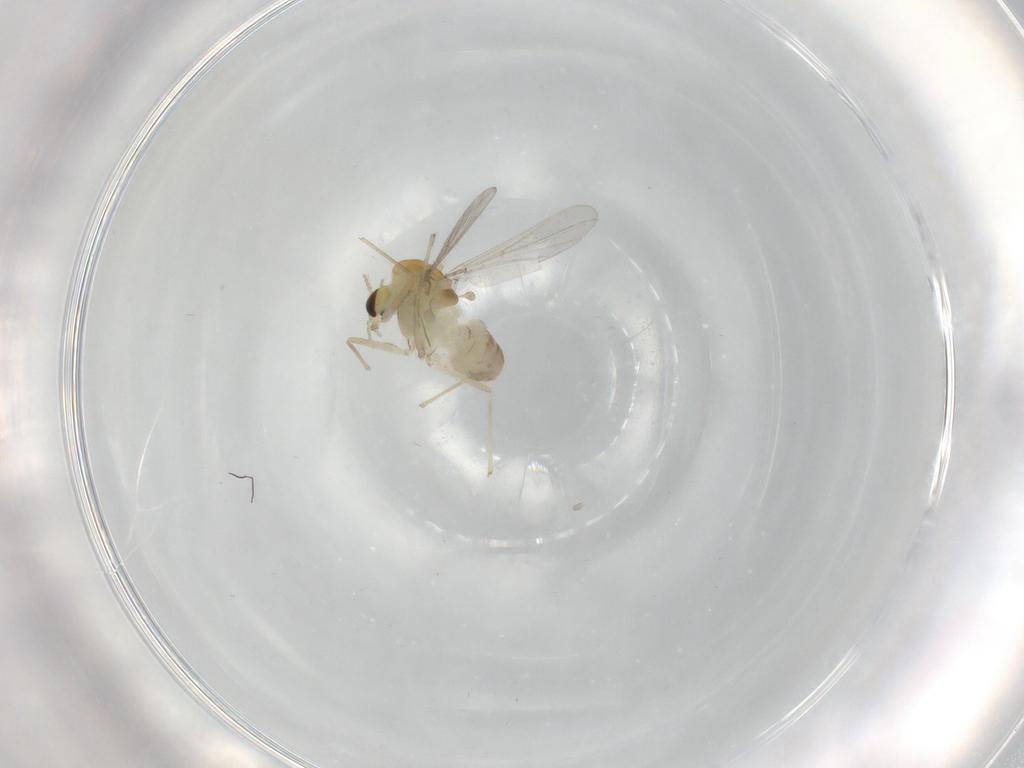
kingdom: Animalia
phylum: Arthropoda
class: Insecta
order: Diptera
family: Chironomidae
